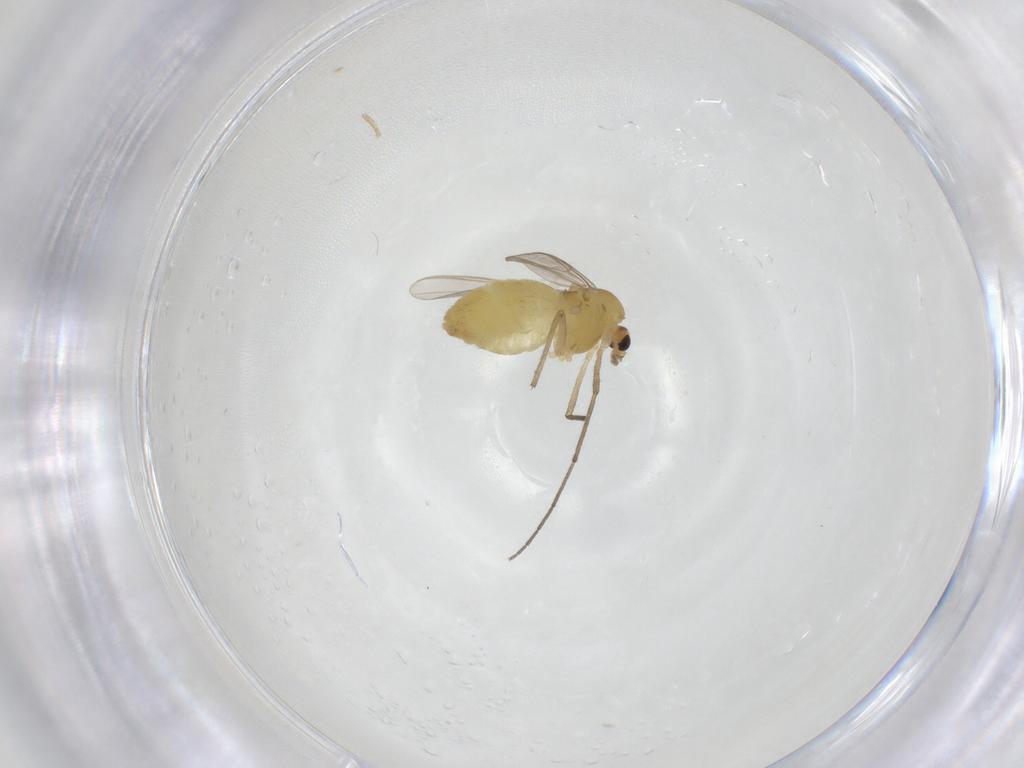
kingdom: Animalia
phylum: Arthropoda
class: Insecta
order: Diptera
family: Chironomidae
